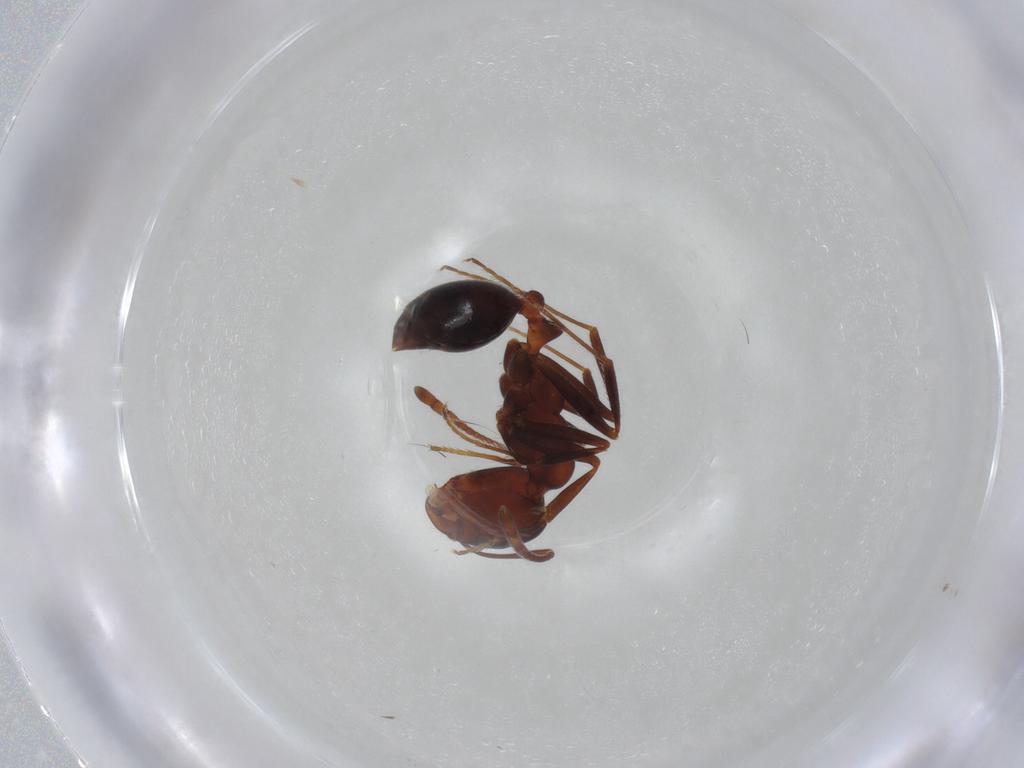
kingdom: Animalia
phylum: Arthropoda
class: Insecta
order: Hymenoptera
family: Formicidae
